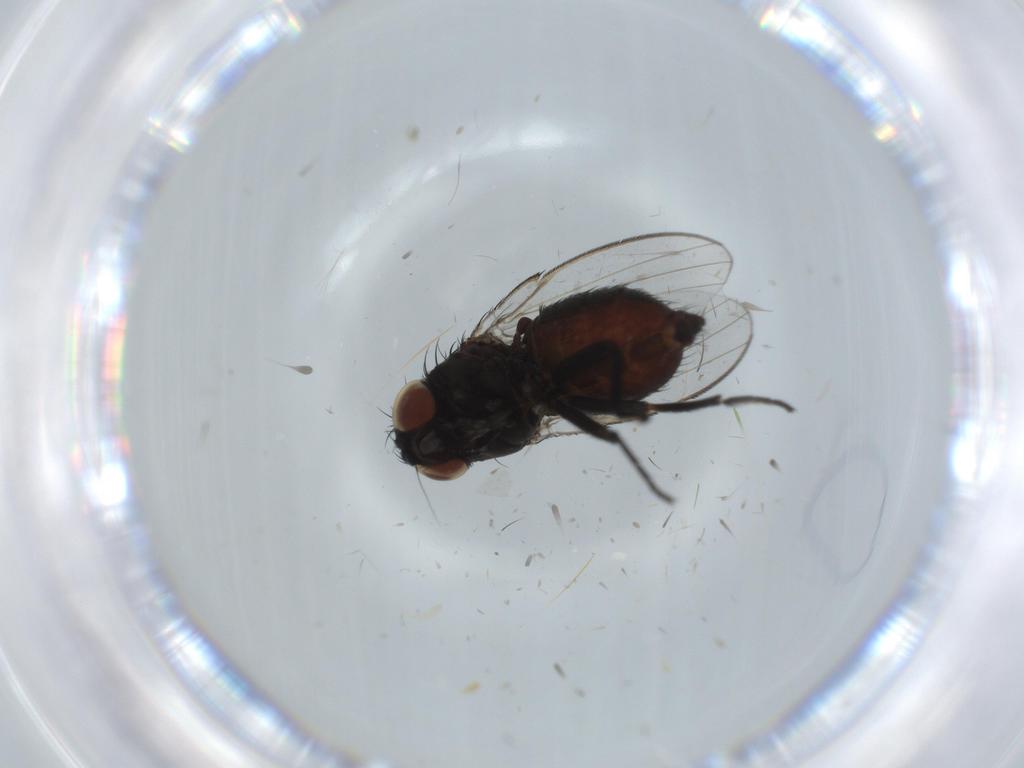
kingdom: Animalia
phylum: Arthropoda
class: Insecta
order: Diptera
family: Milichiidae
